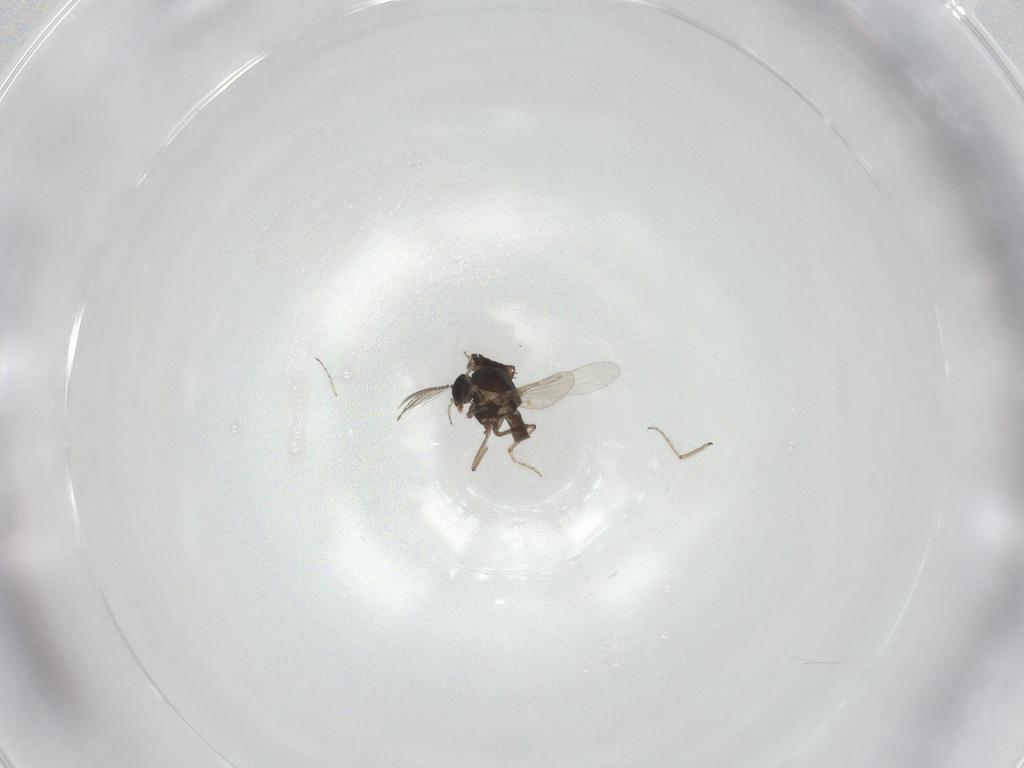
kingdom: Animalia
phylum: Arthropoda
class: Insecta
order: Diptera
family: Ceratopogonidae
